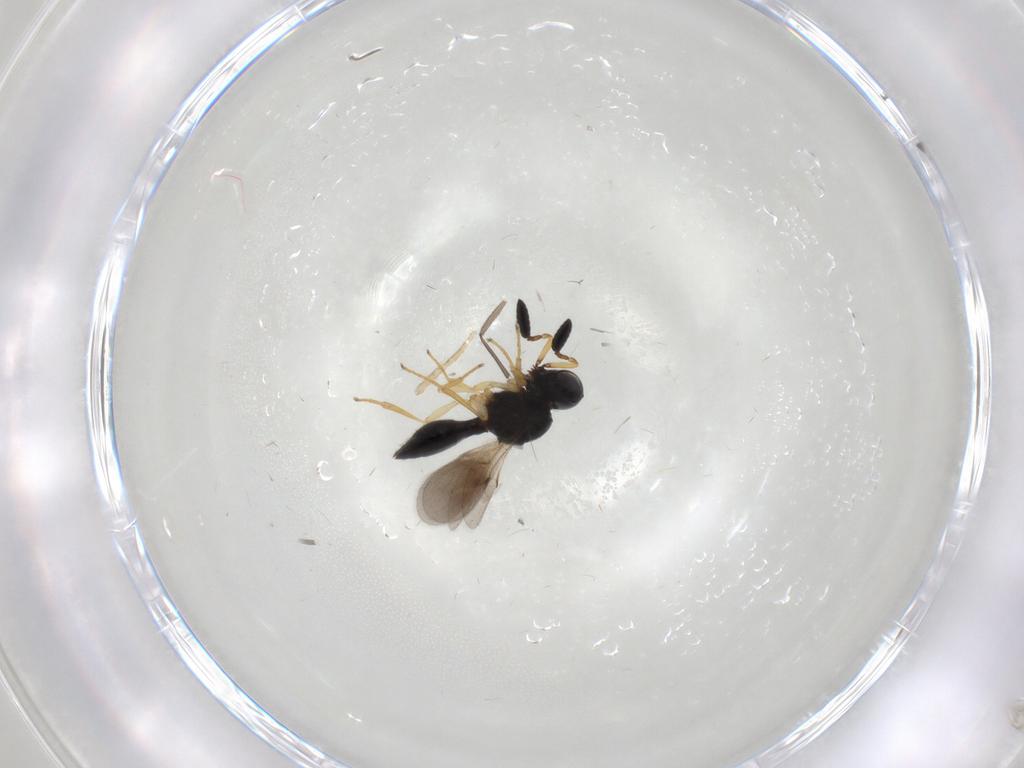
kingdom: Animalia
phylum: Arthropoda
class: Insecta
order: Hymenoptera
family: Scelionidae
